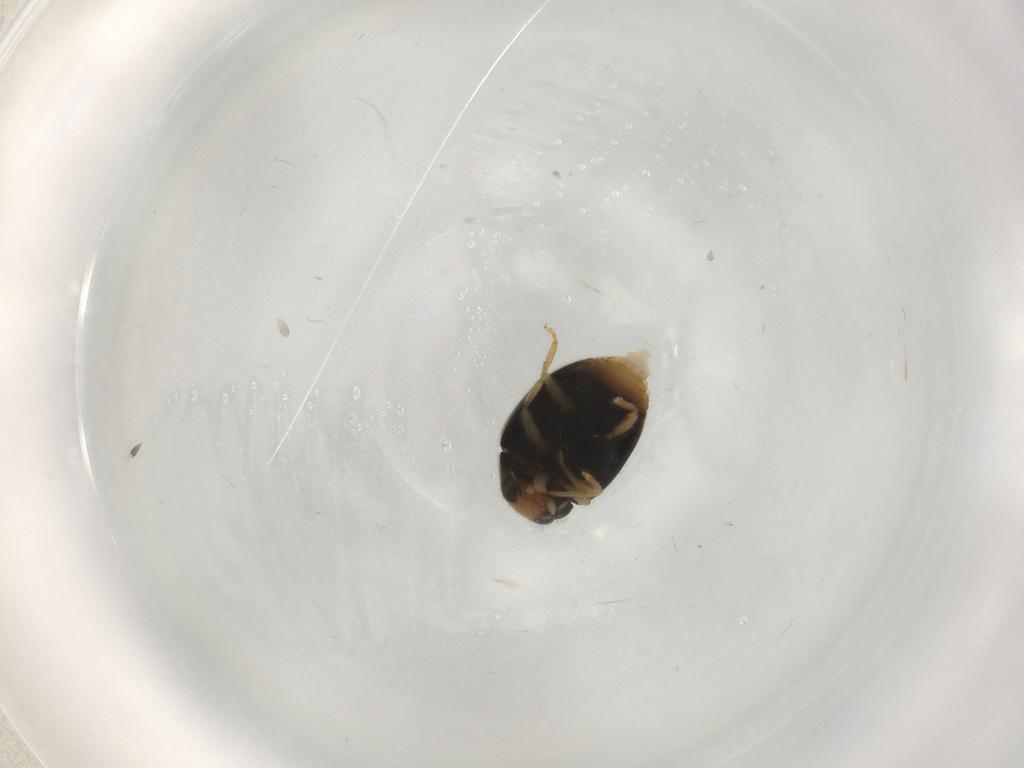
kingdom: Animalia
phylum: Arthropoda
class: Insecta
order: Coleoptera
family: Coccinellidae
